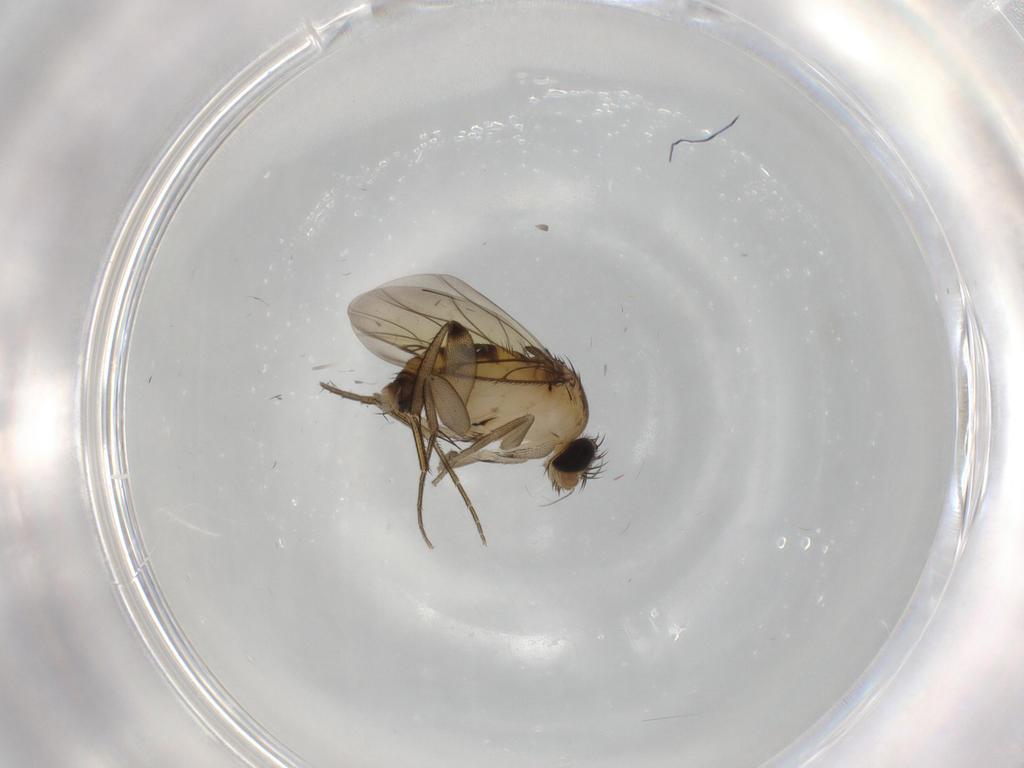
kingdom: Animalia
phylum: Arthropoda
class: Insecta
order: Diptera
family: Phoridae
